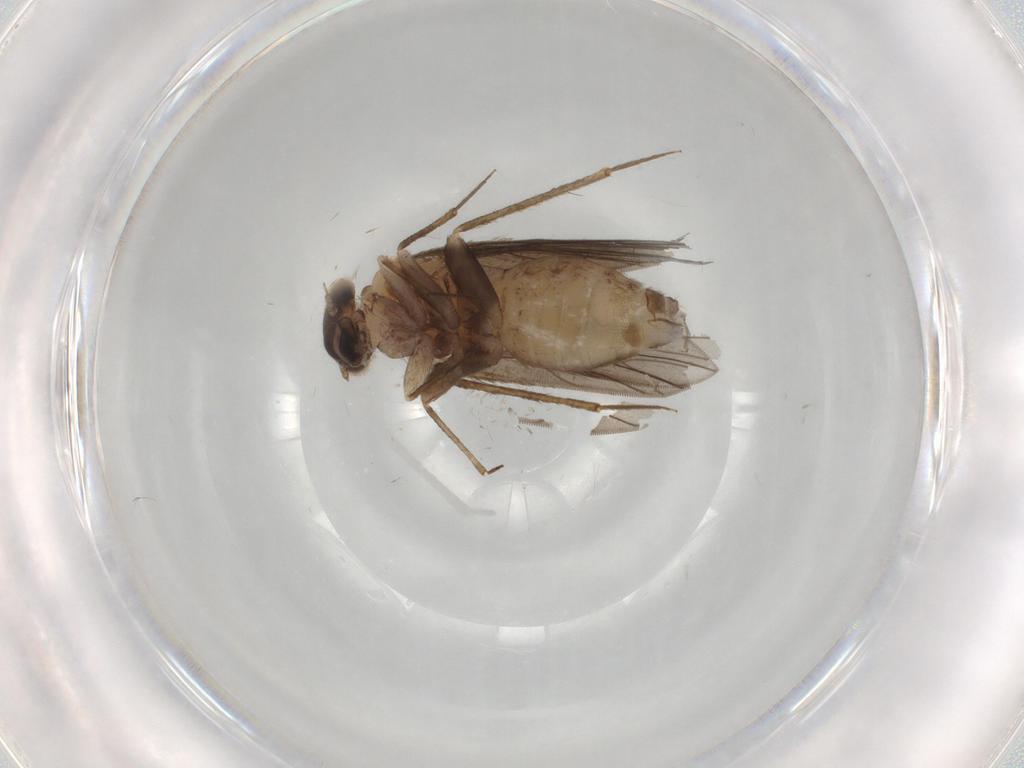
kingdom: Animalia
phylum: Arthropoda
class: Insecta
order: Psocodea
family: Lepidopsocidae
